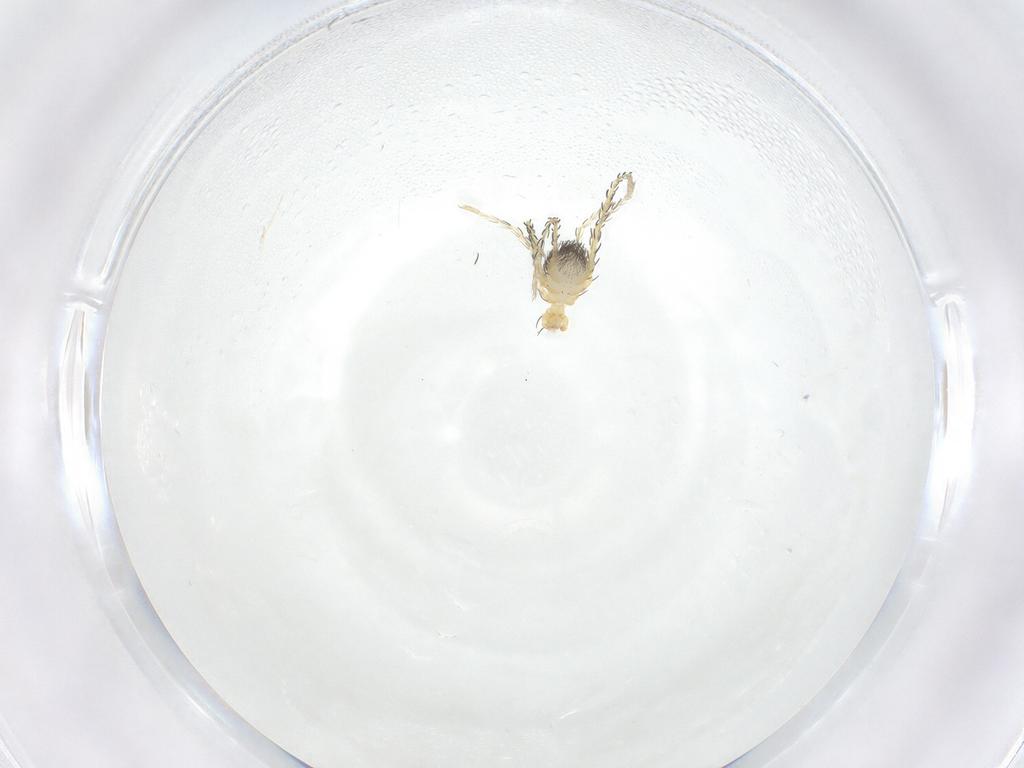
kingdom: Animalia
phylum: Arthropoda
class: Arachnida
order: Trombidiformes
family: Erythraeidae
